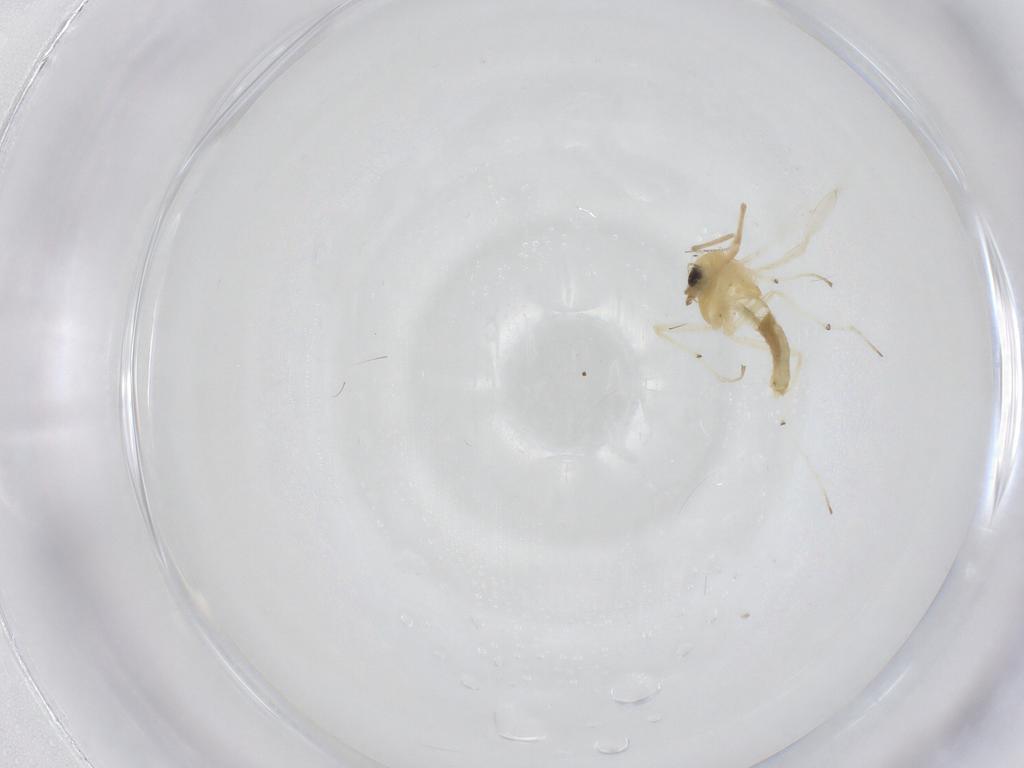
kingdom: Animalia
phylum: Arthropoda
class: Insecta
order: Diptera
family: Chironomidae
